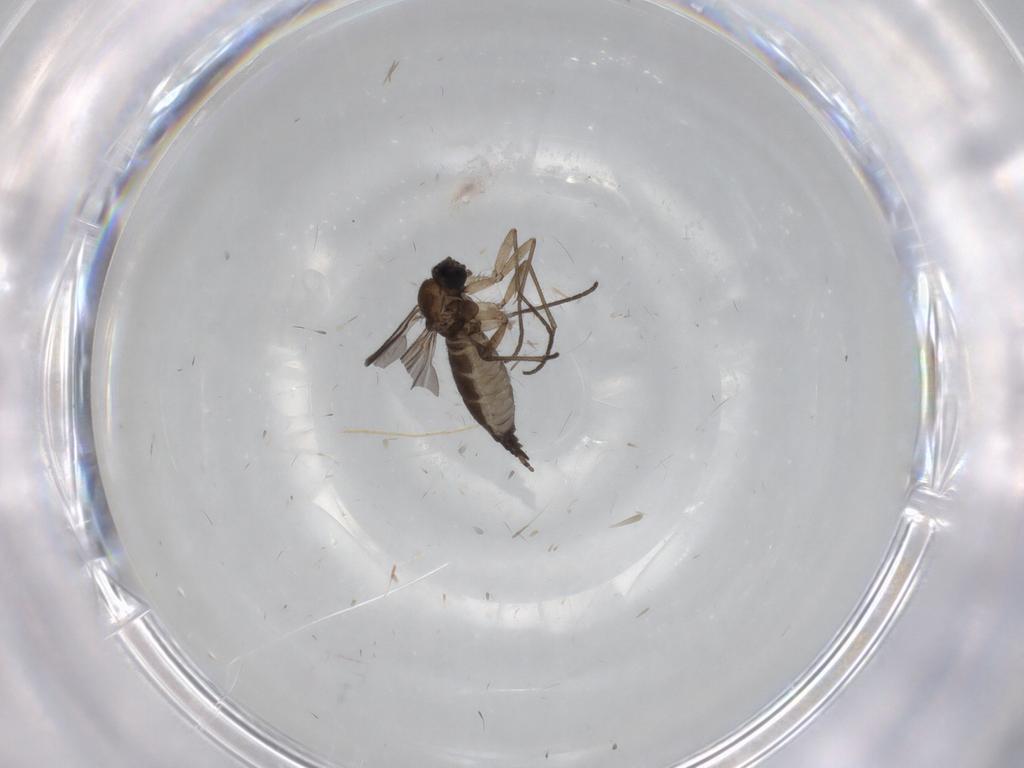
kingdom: Animalia
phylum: Arthropoda
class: Insecta
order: Diptera
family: Sciaridae
